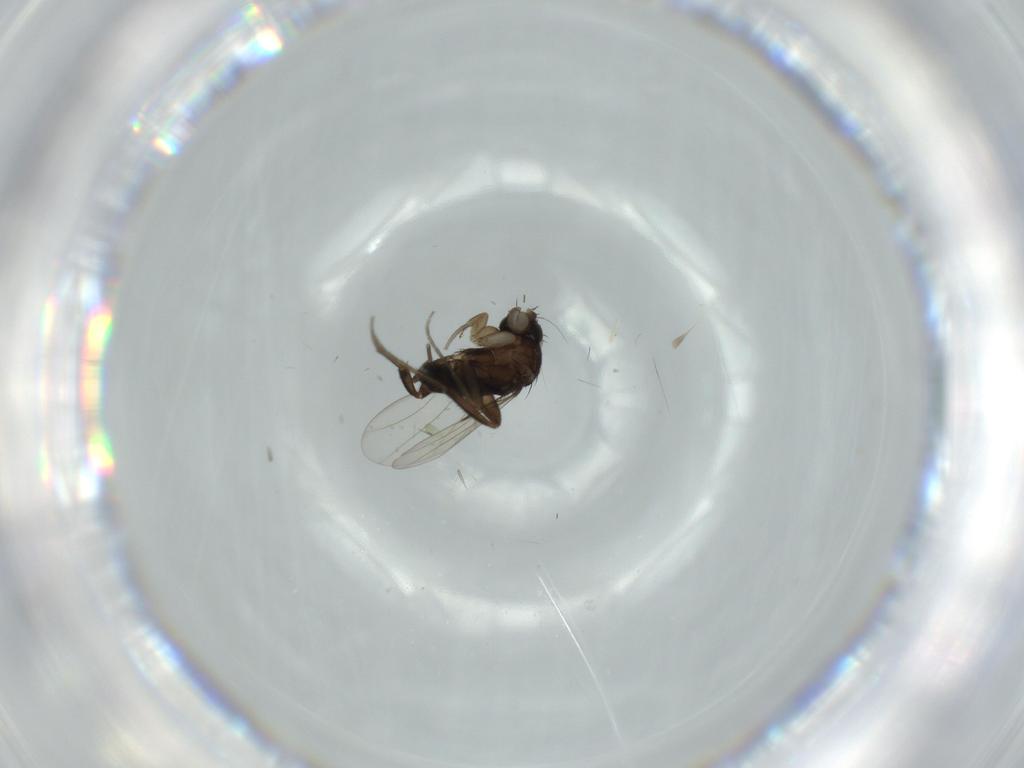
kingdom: Animalia
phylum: Arthropoda
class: Insecta
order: Diptera
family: Phoridae
